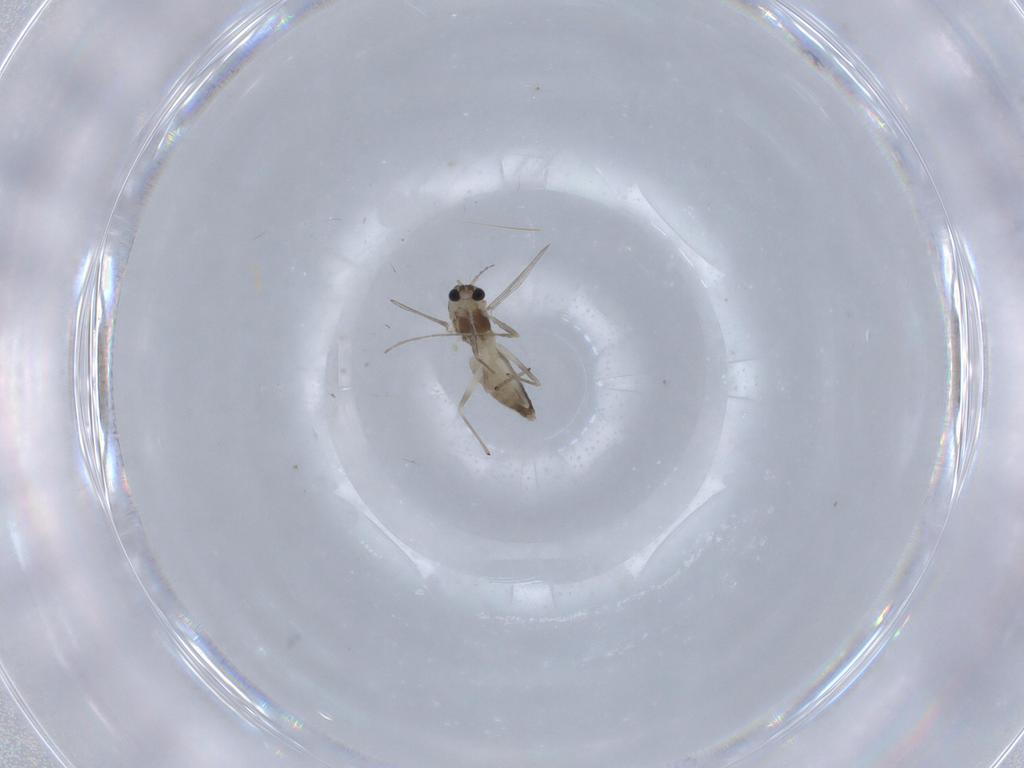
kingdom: Animalia
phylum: Arthropoda
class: Insecta
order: Diptera
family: Chironomidae
